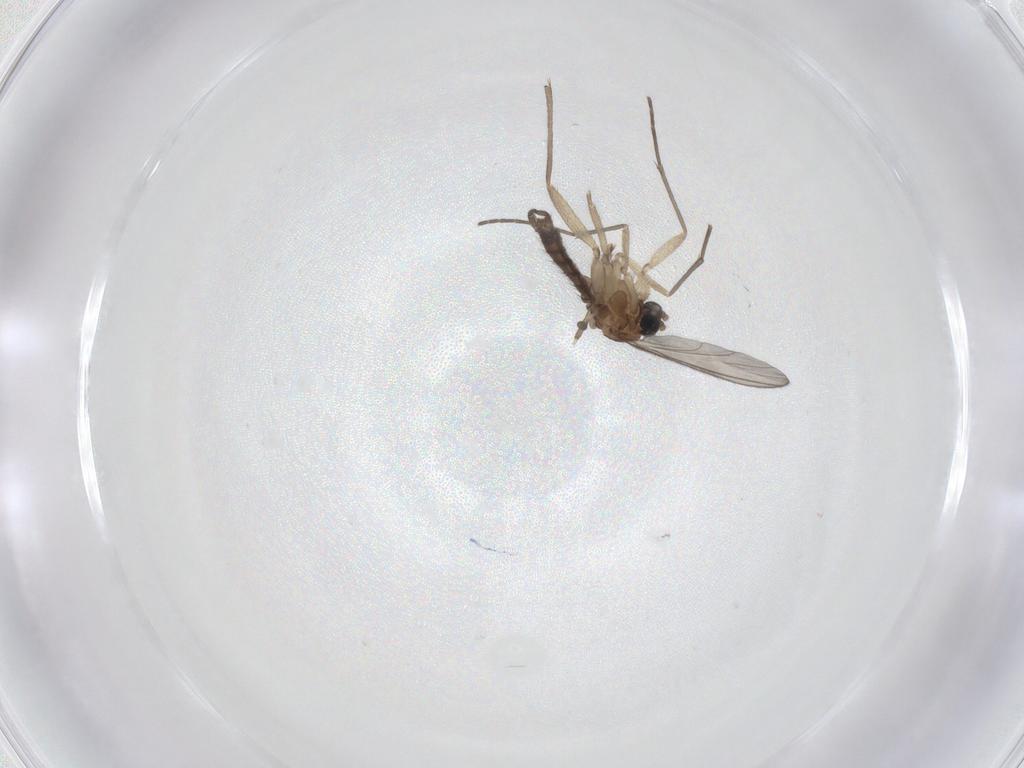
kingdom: Animalia
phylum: Arthropoda
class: Insecta
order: Diptera
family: Sciaridae
